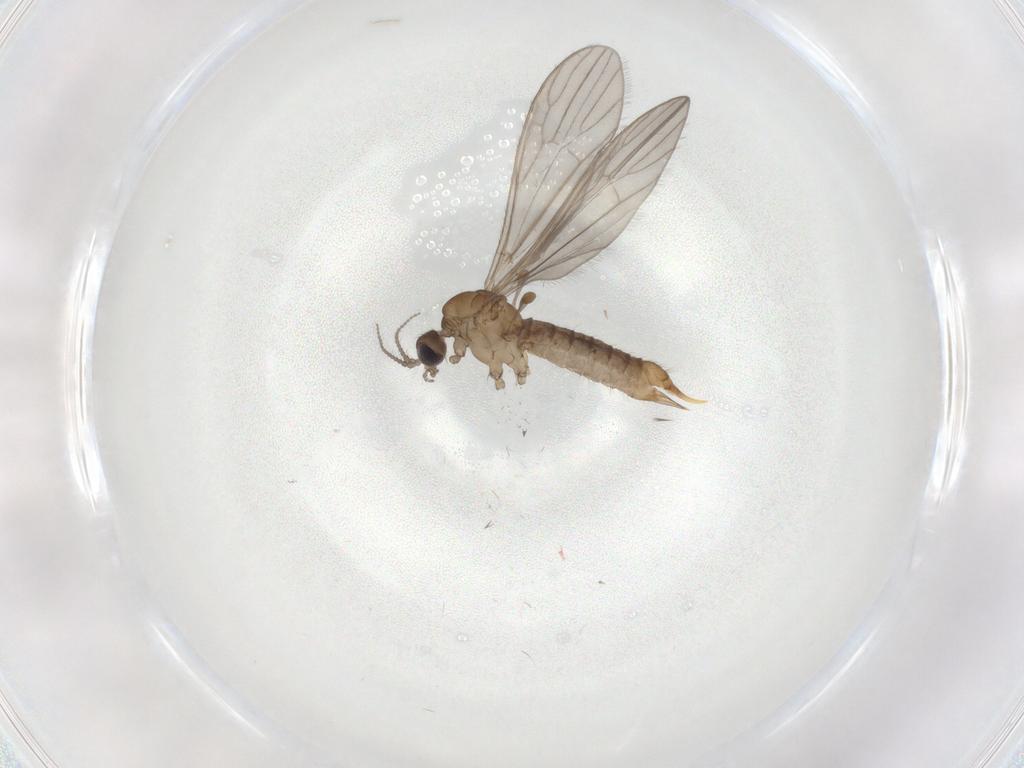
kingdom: Animalia
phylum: Arthropoda
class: Insecta
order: Diptera
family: Limoniidae
